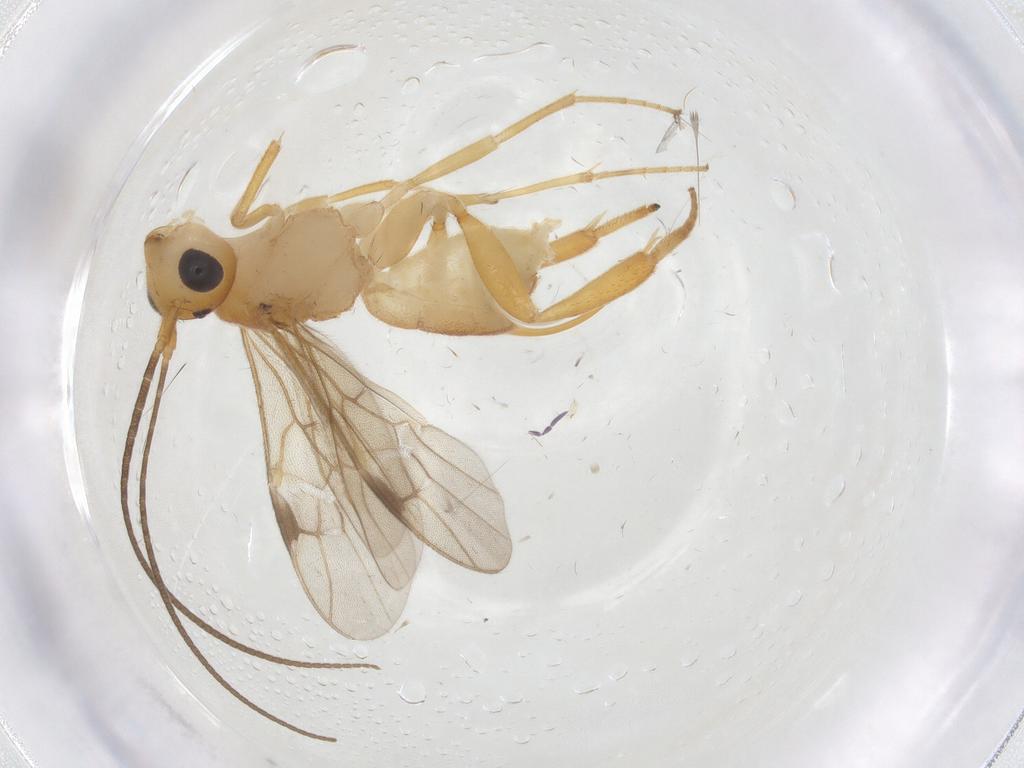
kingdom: Animalia
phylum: Arthropoda
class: Insecta
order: Hymenoptera
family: Braconidae
